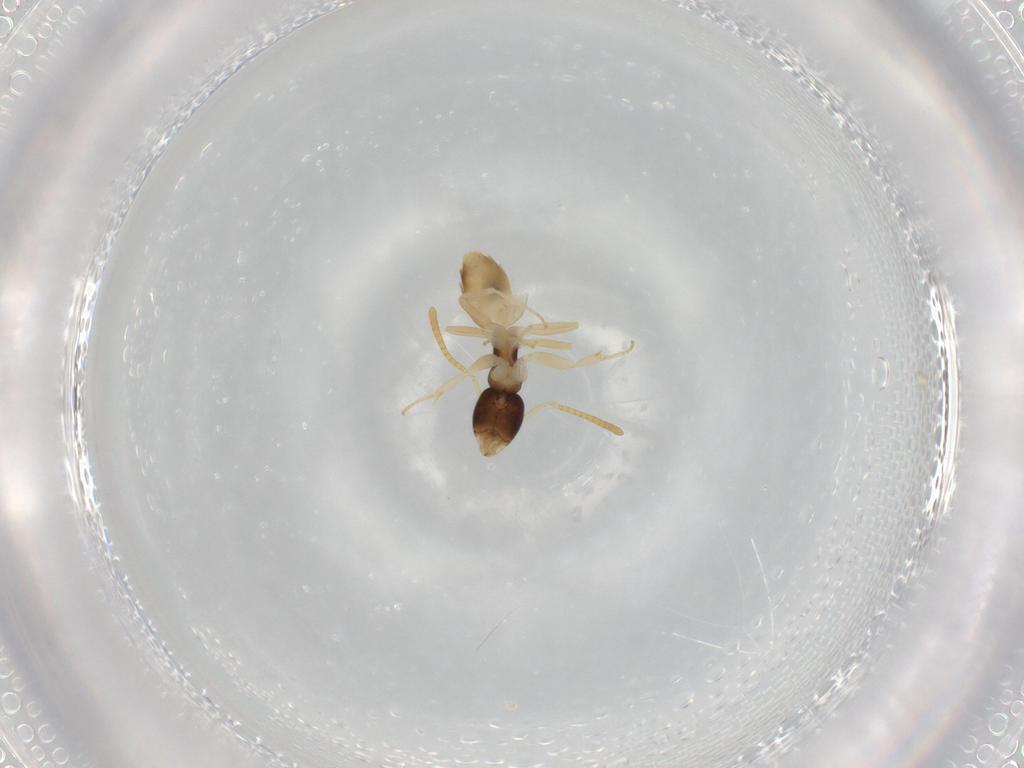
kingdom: Animalia
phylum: Arthropoda
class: Insecta
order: Hymenoptera
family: Formicidae
